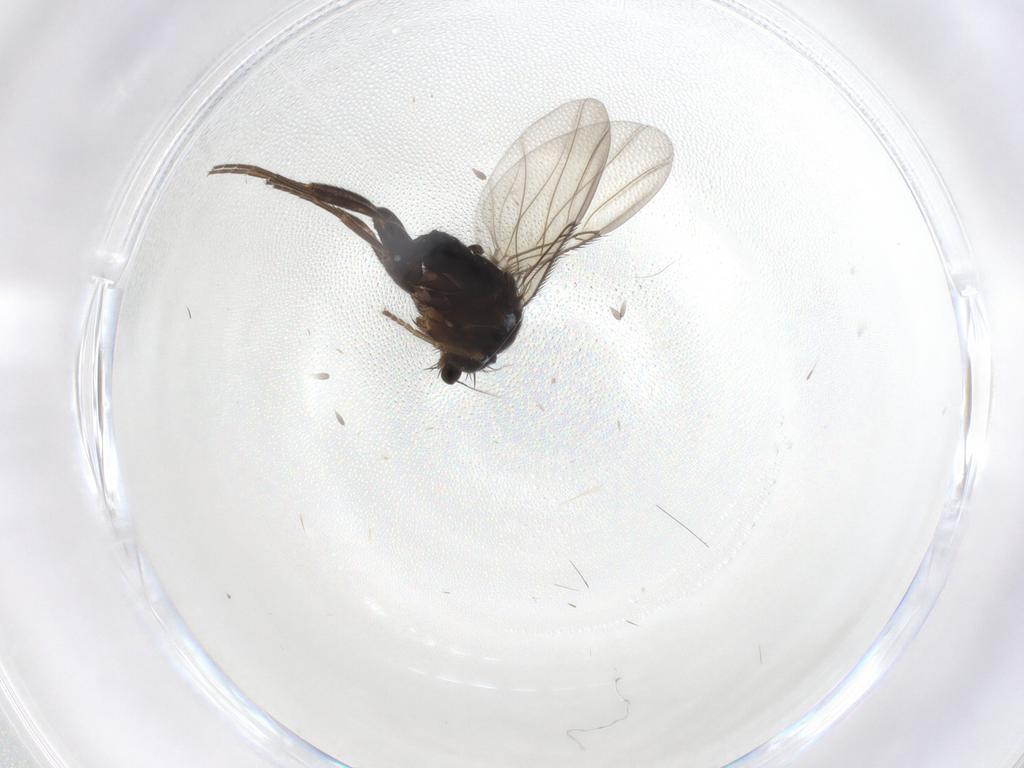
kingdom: Animalia
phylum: Arthropoda
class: Insecta
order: Diptera
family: Phoridae
